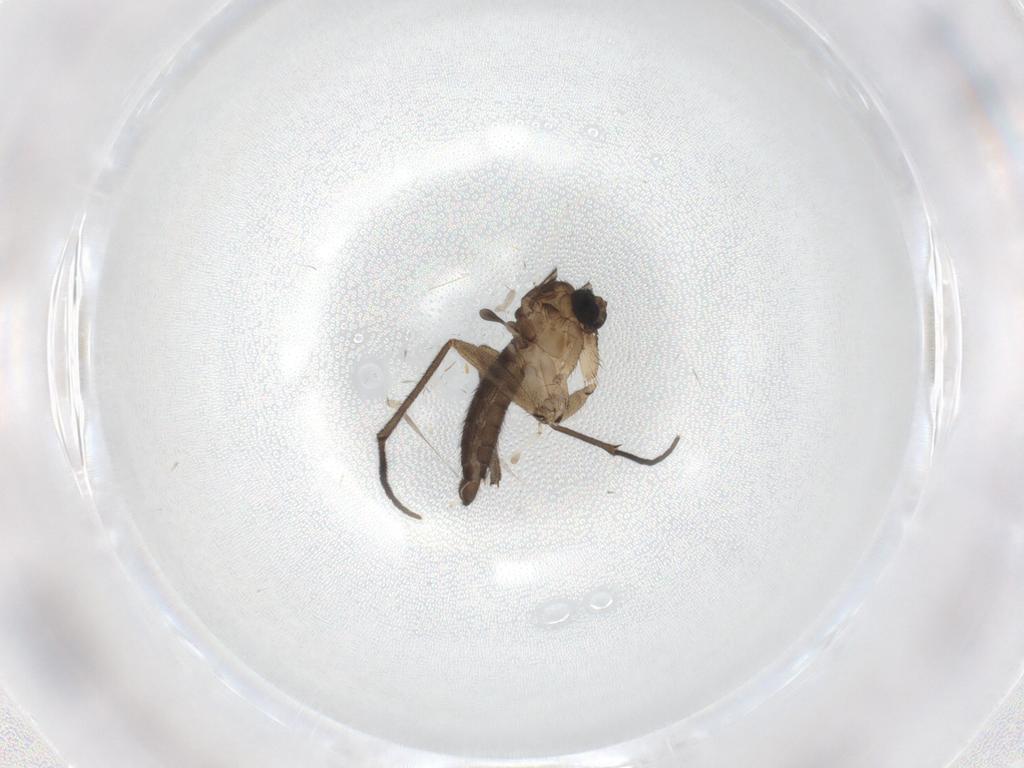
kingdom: Animalia
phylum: Arthropoda
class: Insecta
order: Diptera
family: Cecidomyiidae
